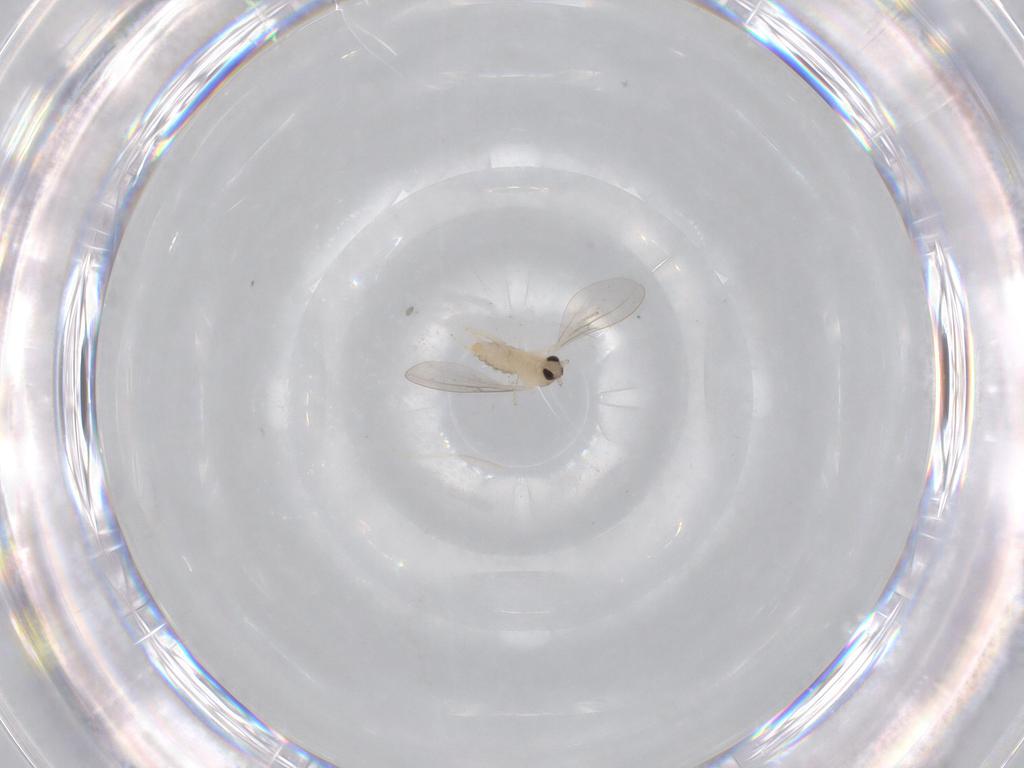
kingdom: Animalia
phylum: Arthropoda
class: Insecta
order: Diptera
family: Cecidomyiidae
